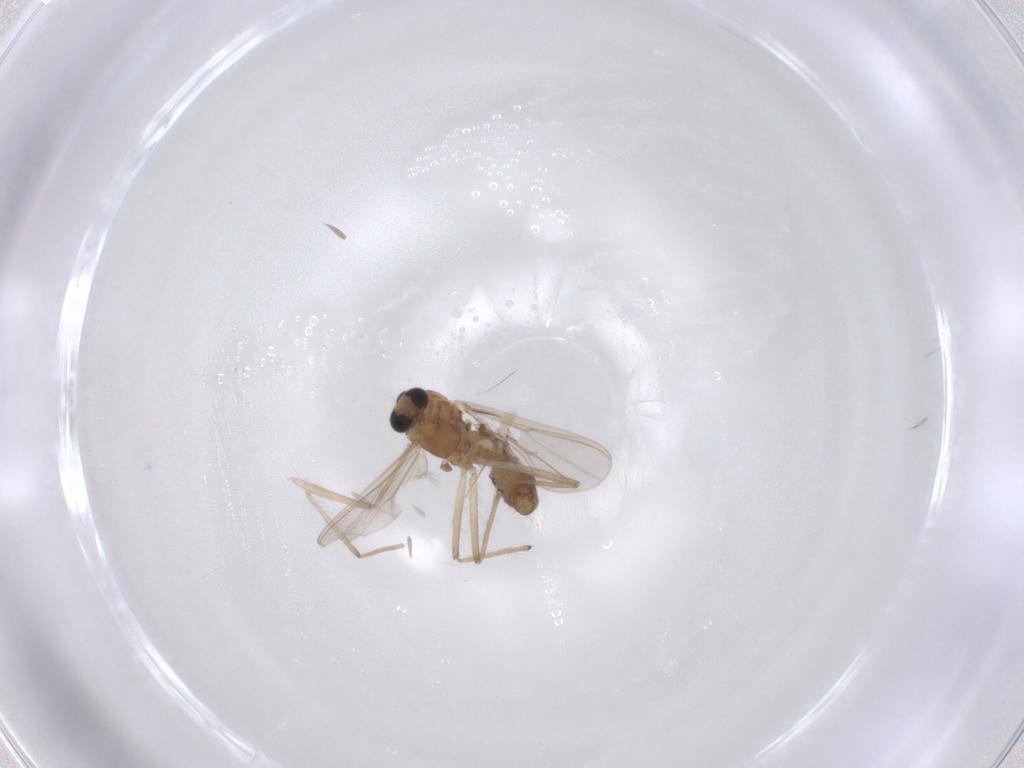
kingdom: Animalia
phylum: Arthropoda
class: Insecta
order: Diptera
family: Chironomidae
